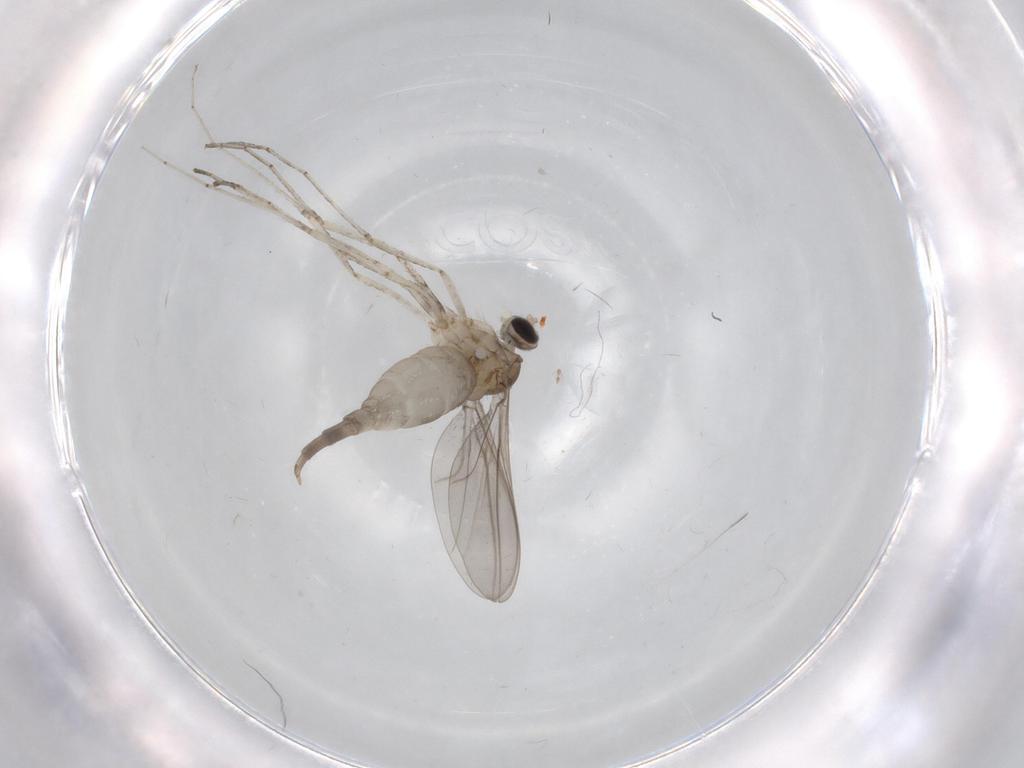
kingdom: Animalia
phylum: Arthropoda
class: Insecta
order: Diptera
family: Cecidomyiidae
